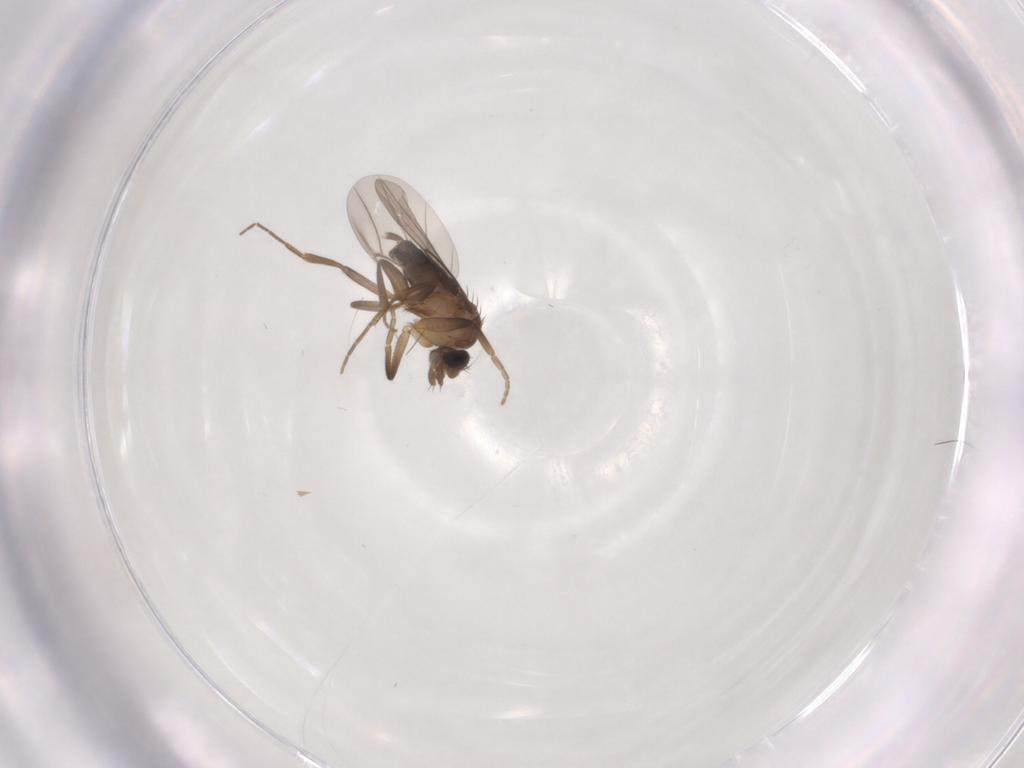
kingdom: Animalia
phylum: Arthropoda
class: Insecta
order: Diptera
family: Phoridae
